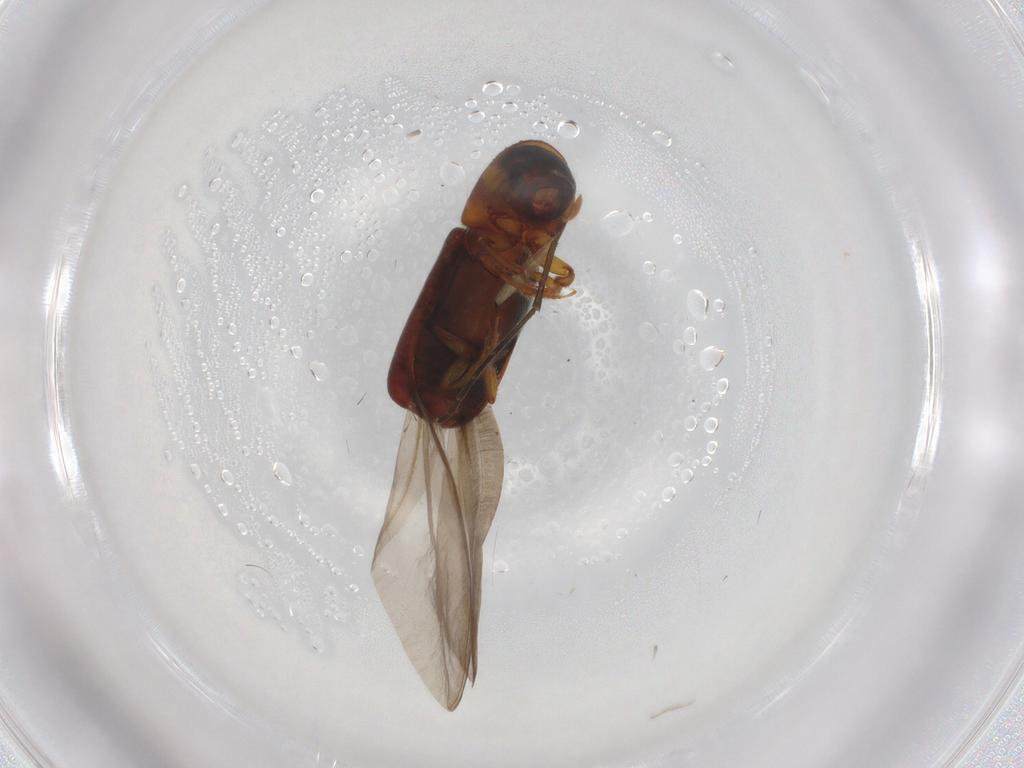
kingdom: Animalia
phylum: Arthropoda
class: Insecta
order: Coleoptera
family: Curculionidae
